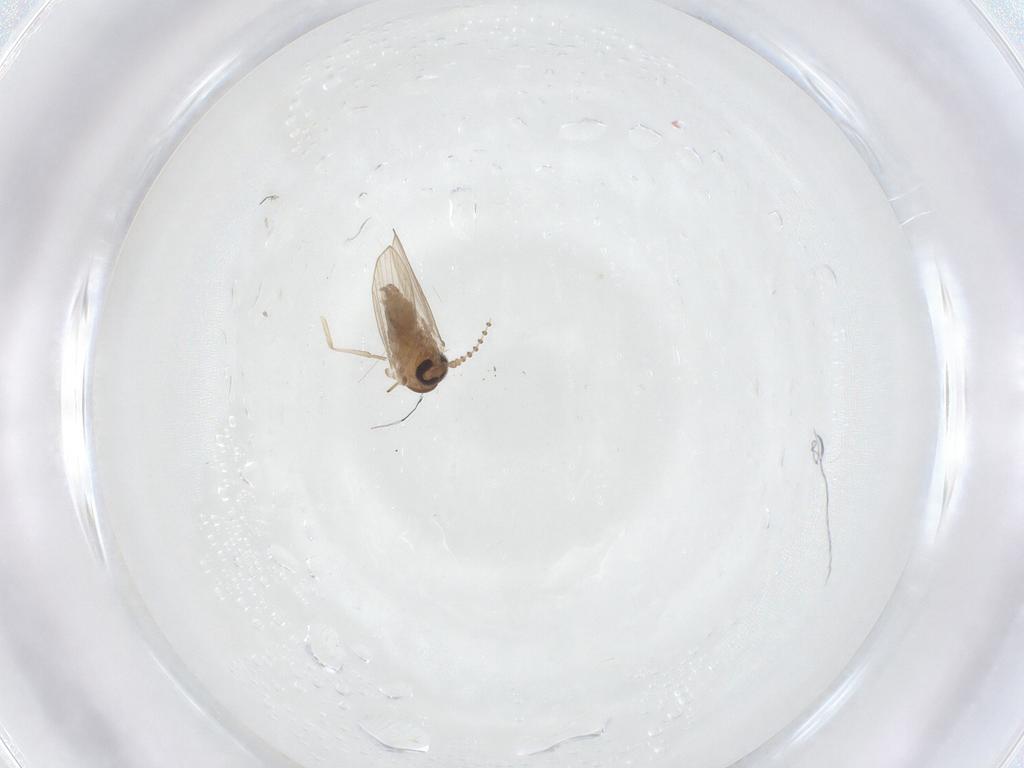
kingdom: Animalia
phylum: Arthropoda
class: Insecta
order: Diptera
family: Psychodidae
